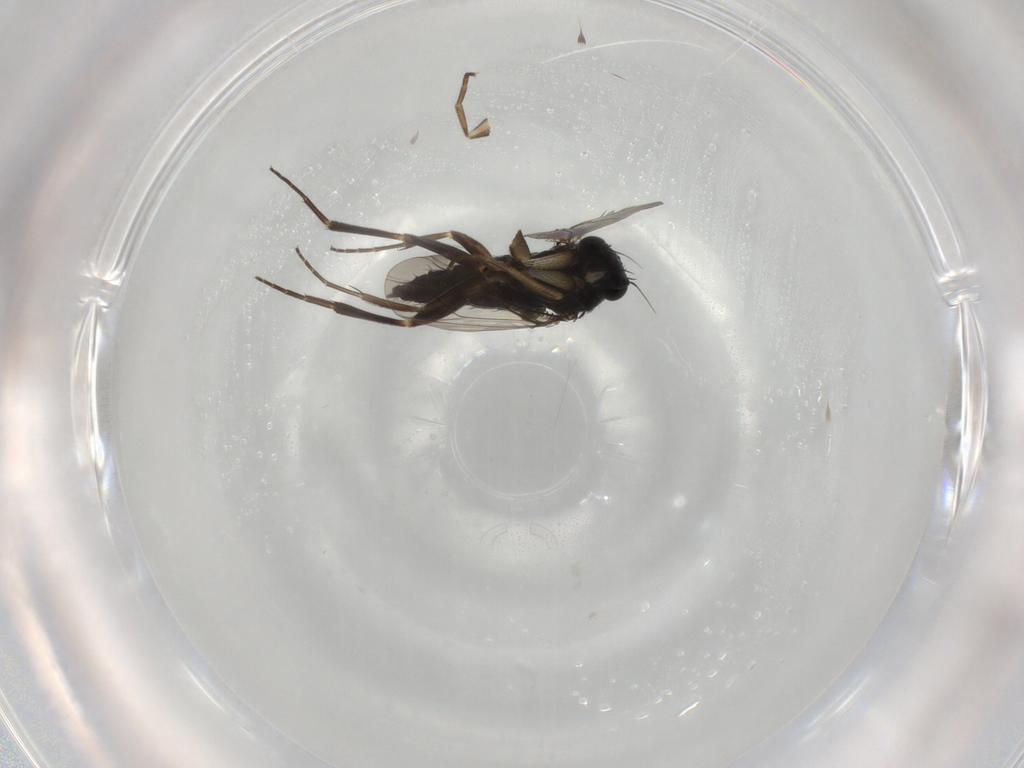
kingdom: Animalia
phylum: Arthropoda
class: Insecta
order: Diptera
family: Phoridae
